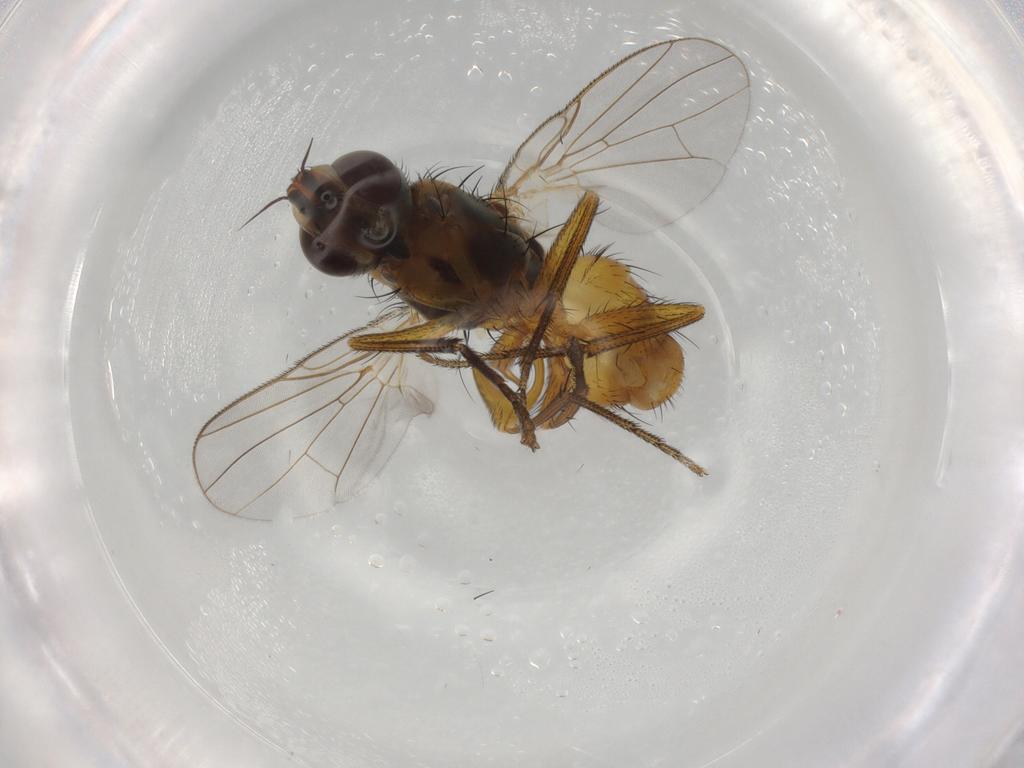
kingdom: Animalia
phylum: Arthropoda
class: Insecta
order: Diptera
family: Muscidae
